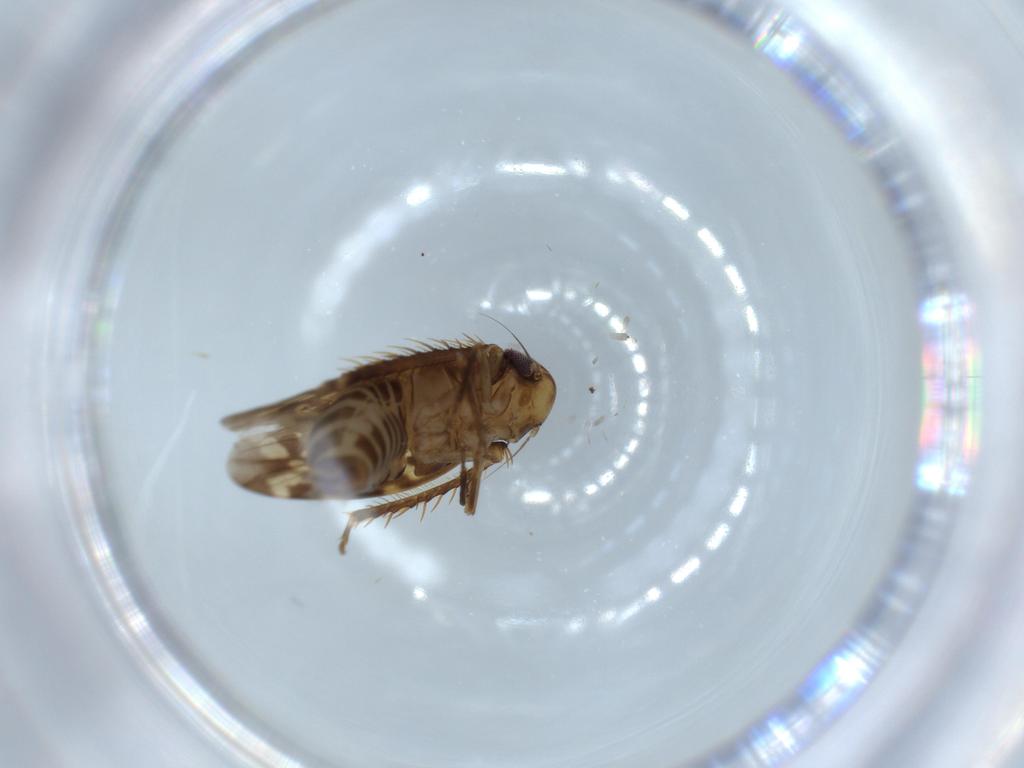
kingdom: Animalia
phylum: Arthropoda
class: Insecta
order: Hemiptera
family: Cicadellidae
